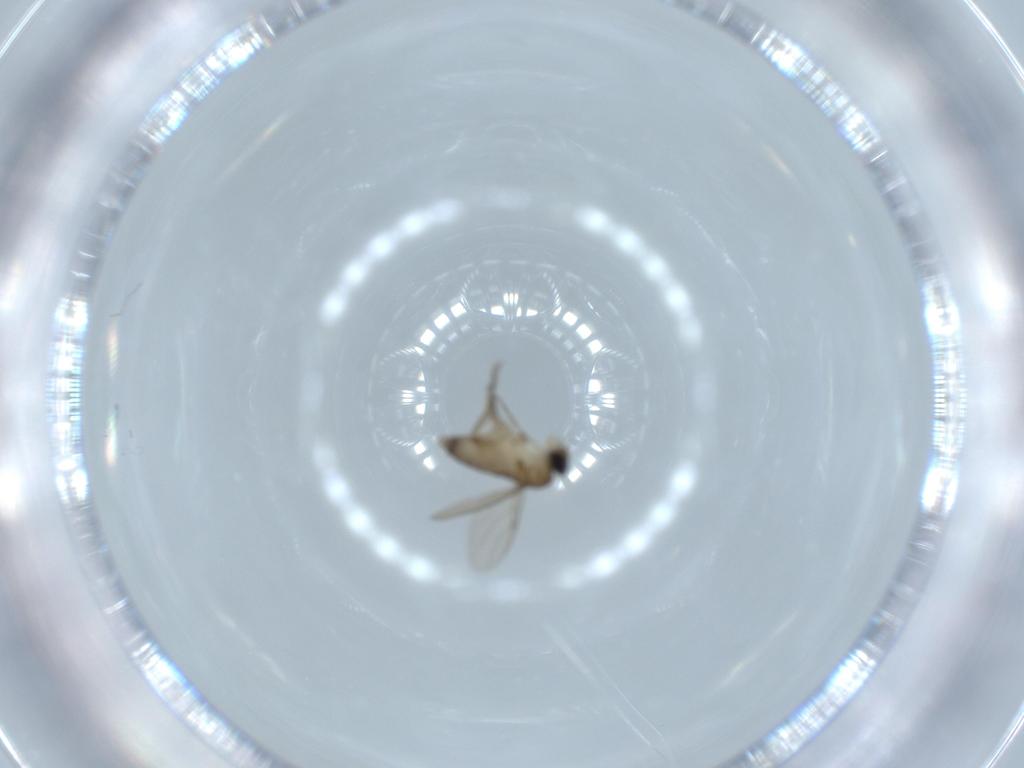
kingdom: Animalia
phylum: Arthropoda
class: Insecta
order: Diptera
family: Phoridae
